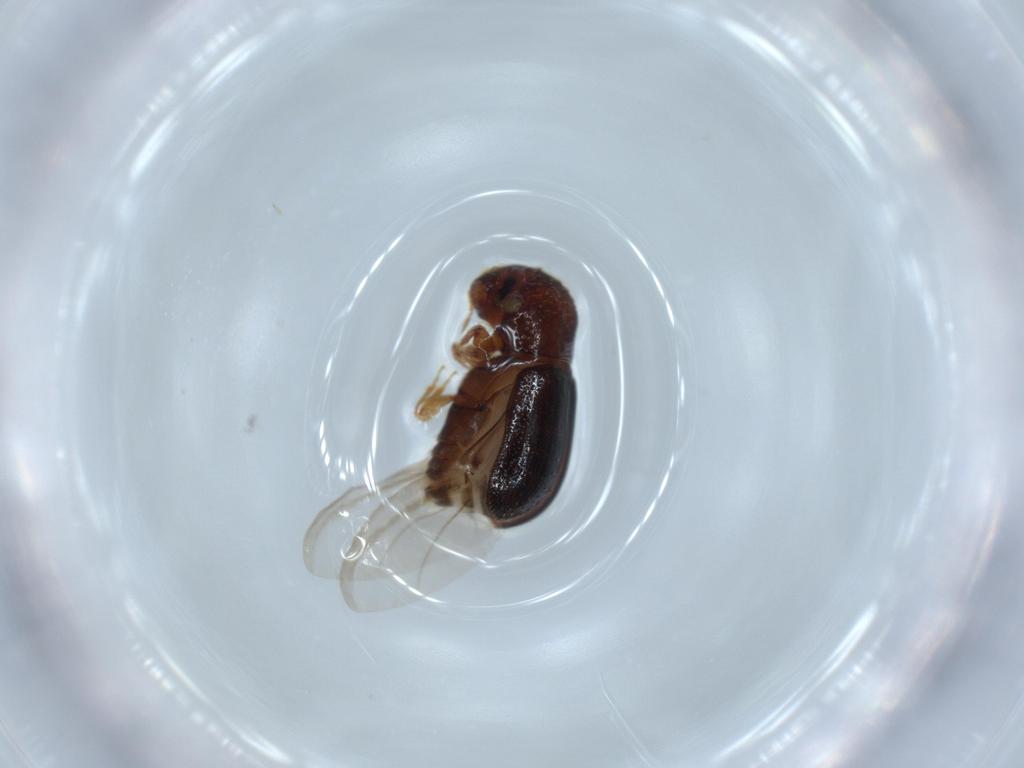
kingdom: Animalia
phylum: Arthropoda
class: Insecta
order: Coleoptera
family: Curculionidae
